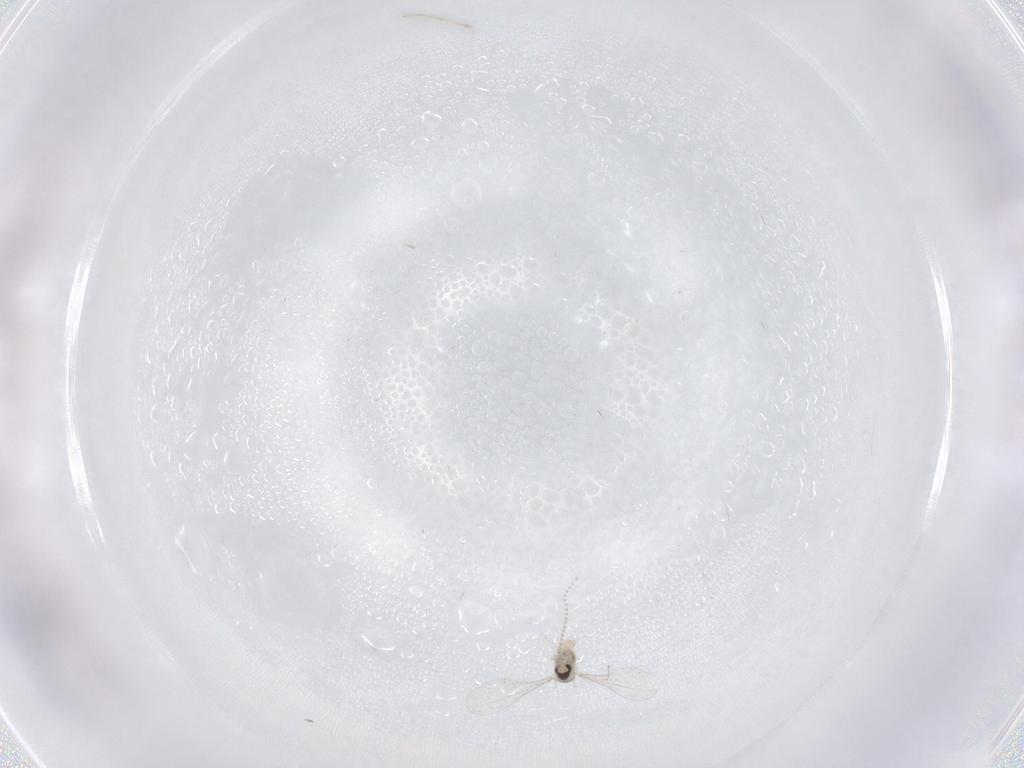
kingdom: Animalia
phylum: Arthropoda
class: Insecta
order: Diptera
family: Cecidomyiidae
